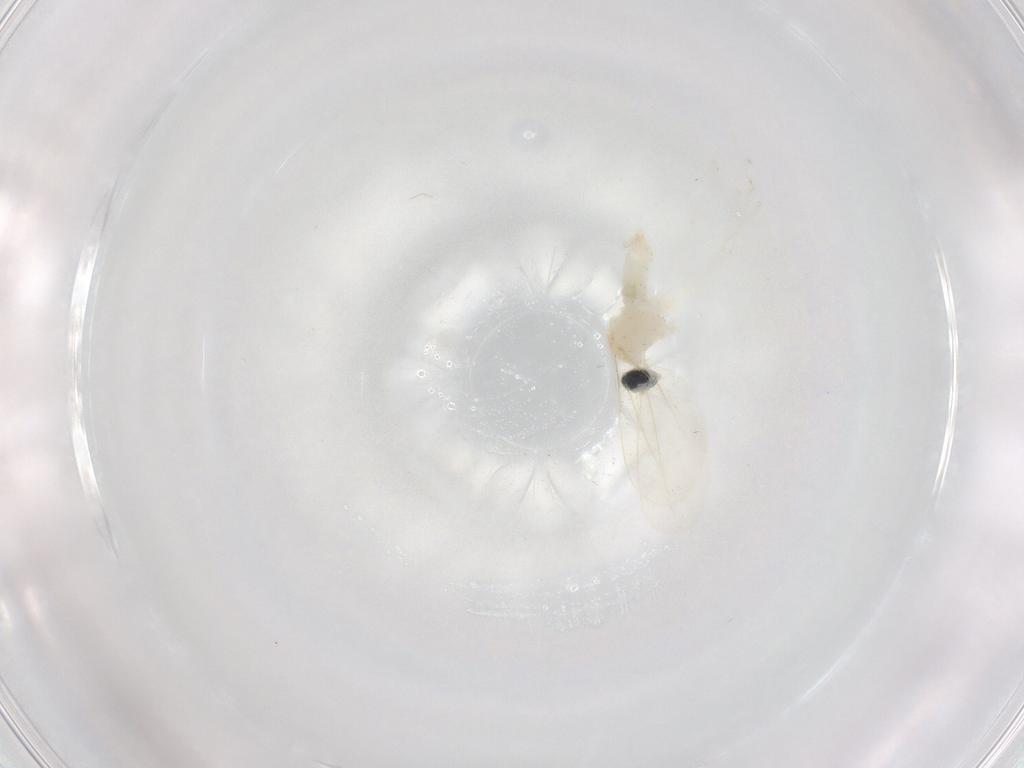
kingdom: Animalia
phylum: Arthropoda
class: Insecta
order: Diptera
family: Cecidomyiidae
